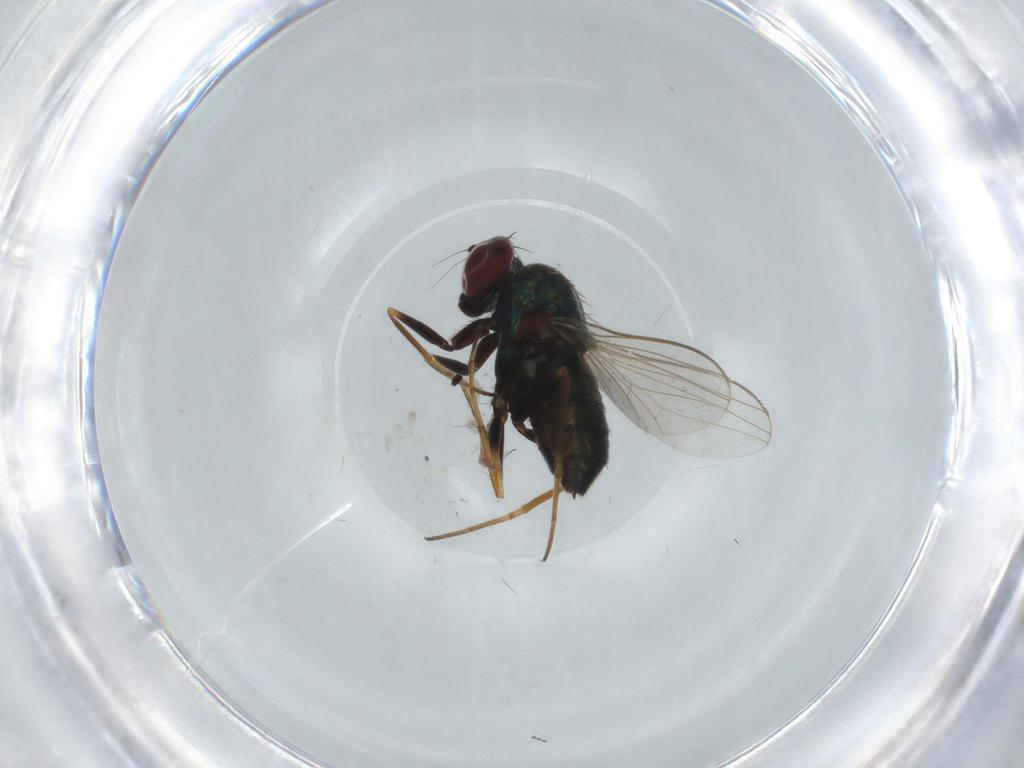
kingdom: Animalia
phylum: Arthropoda
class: Insecta
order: Diptera
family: Dolichopodidae
